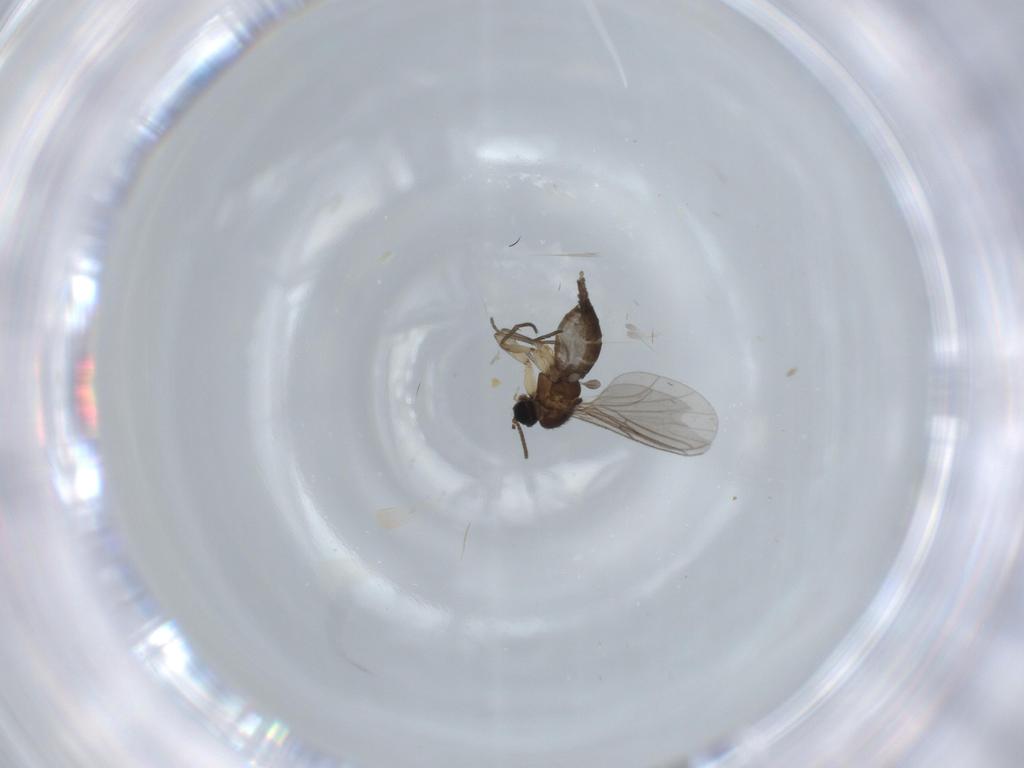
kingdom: Animalia
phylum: Arthropoda
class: Insecta
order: Diptera
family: Sciaridae
